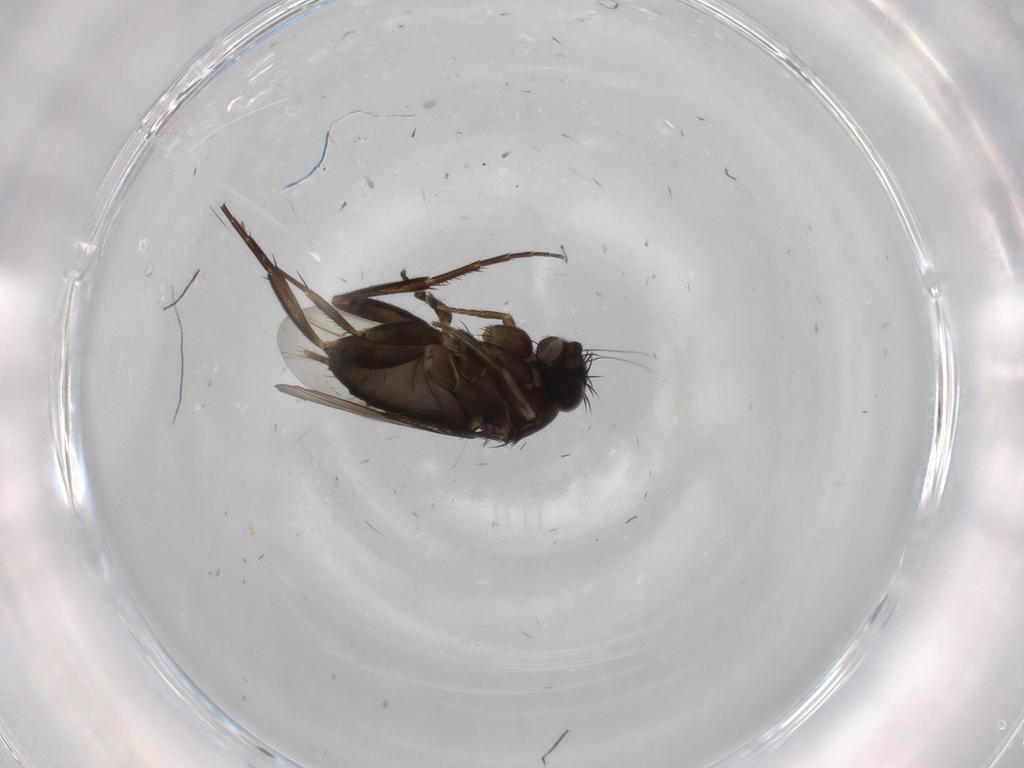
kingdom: Animalia
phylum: Arthropoda
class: Insecta
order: Diptera
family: Phoridae
